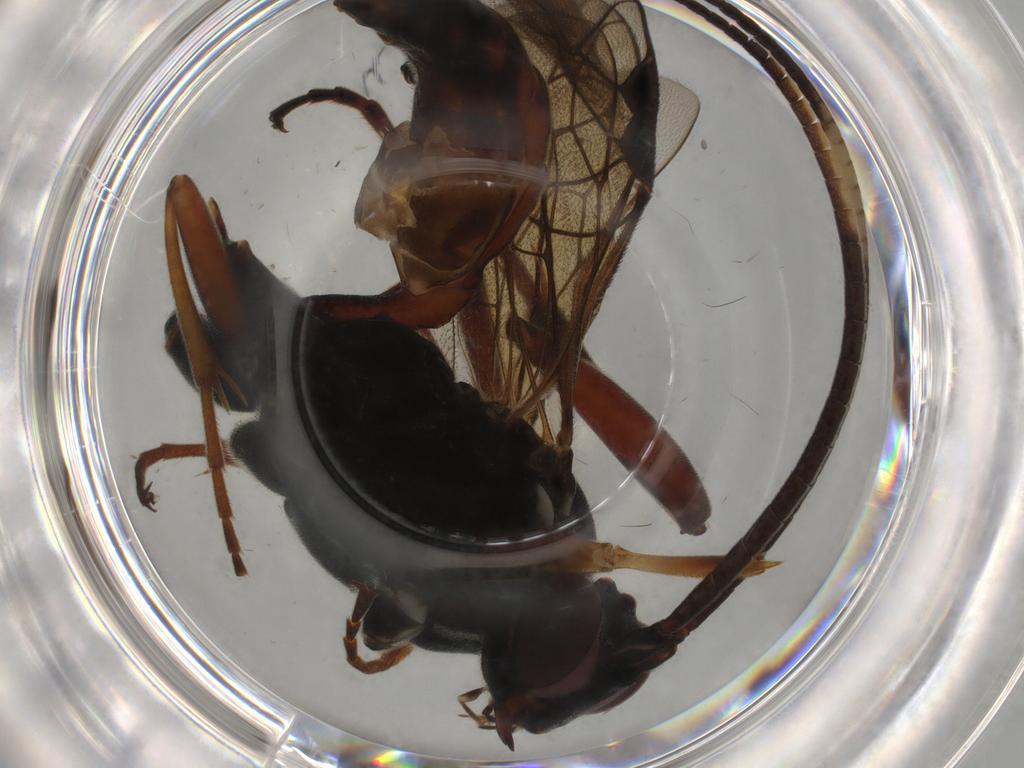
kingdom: Animalia
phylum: Arthropoda
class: Insecta
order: Hymenoptera
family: Ichneumonidae
